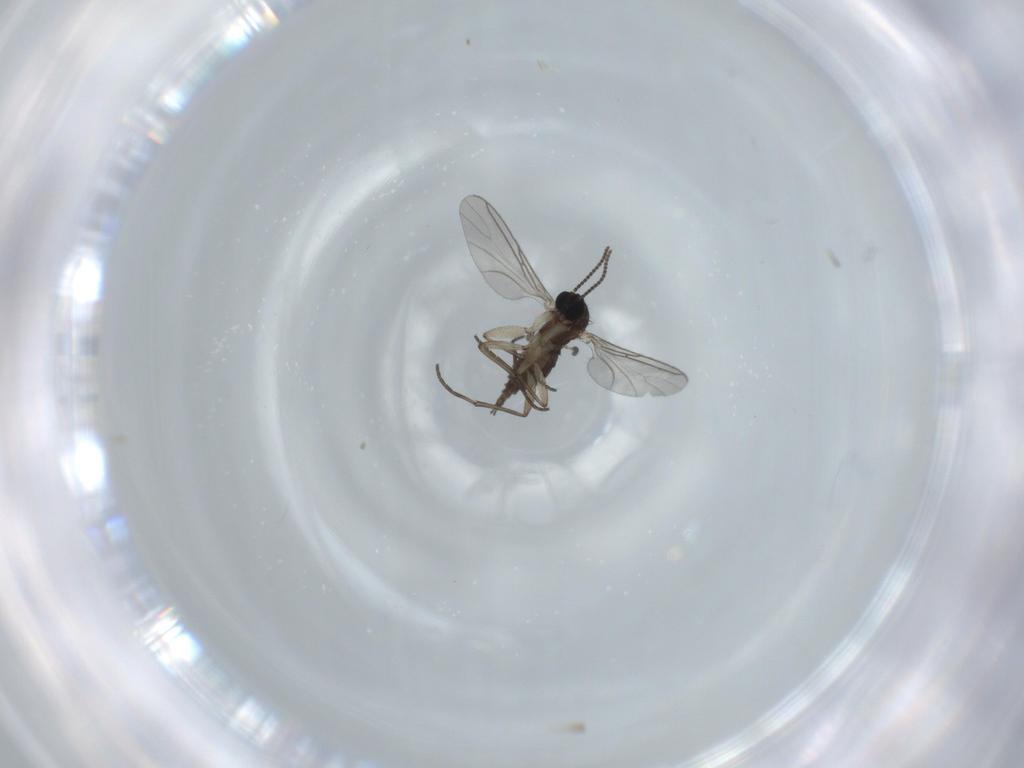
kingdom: Animalia
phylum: Arthropoda
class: Insecta
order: Diptera
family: Sciaridae
